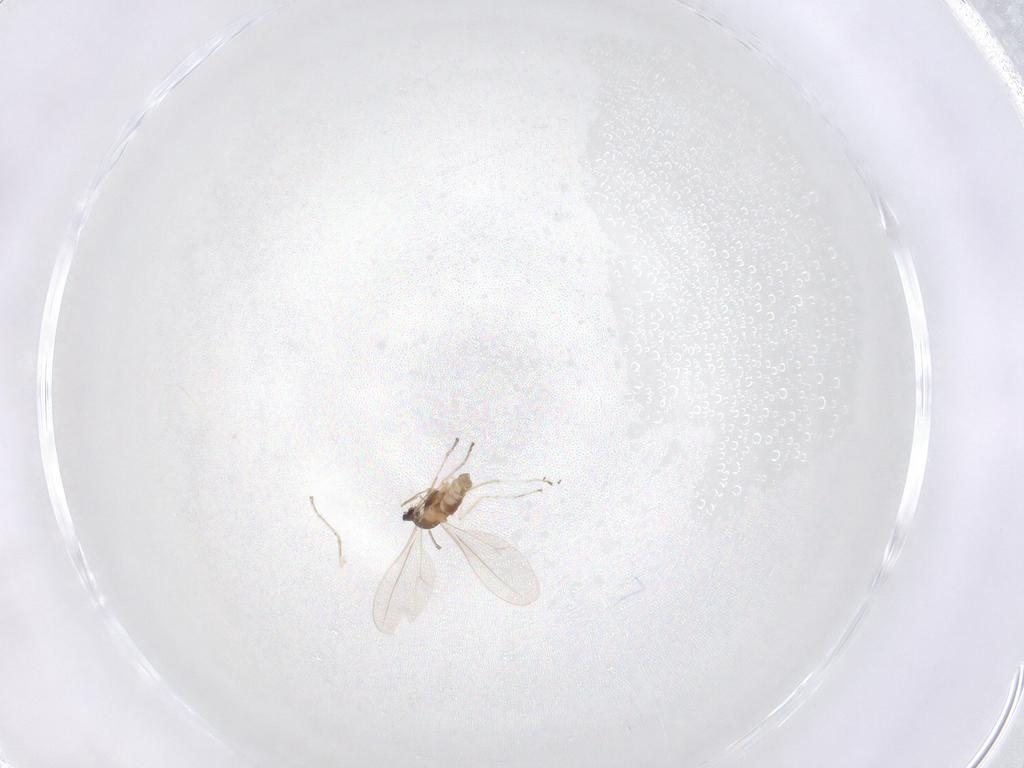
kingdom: Animalia
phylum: Arthropoda
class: Insecta
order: Diptera
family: Cecidomyiidae
